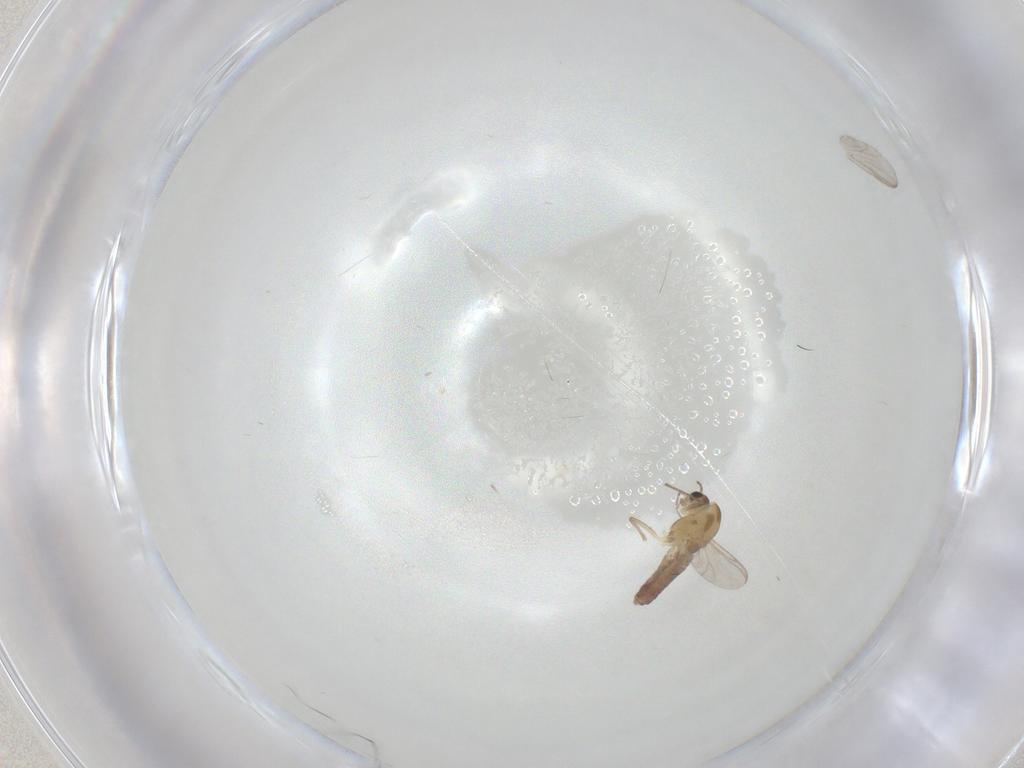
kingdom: Animalia
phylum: Arthropoda
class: Insecta
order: Diptera
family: Chironomidae
